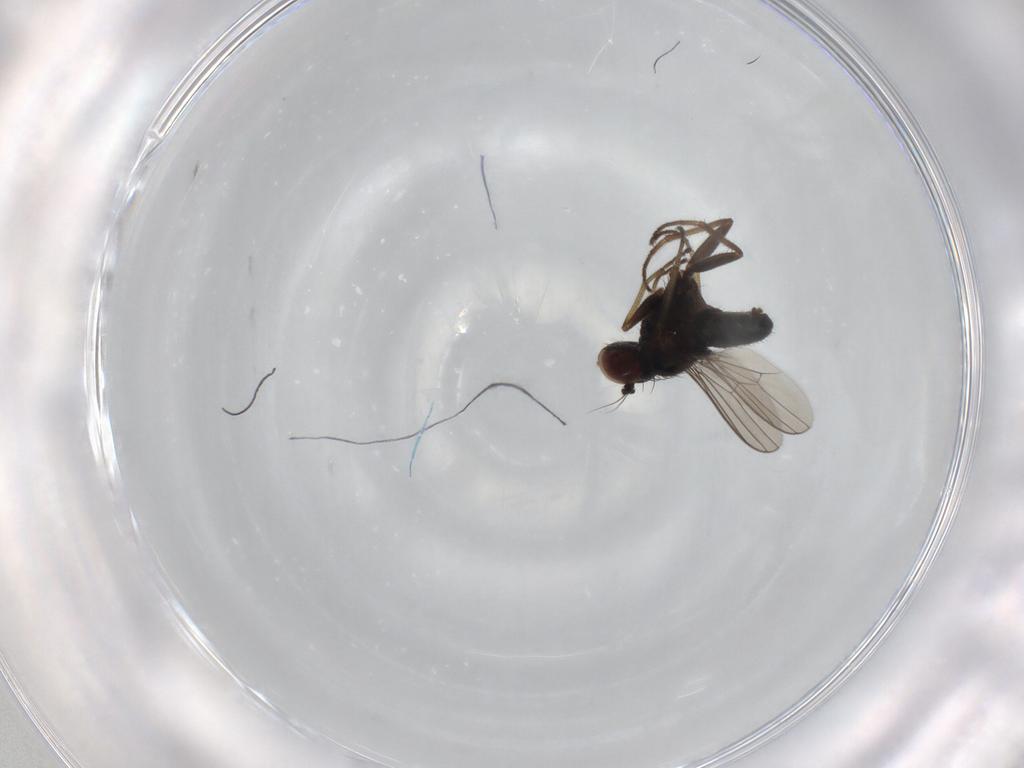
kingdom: Animalia
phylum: Arthropoda
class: Insecta
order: Diptera
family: Dolichopodidae
